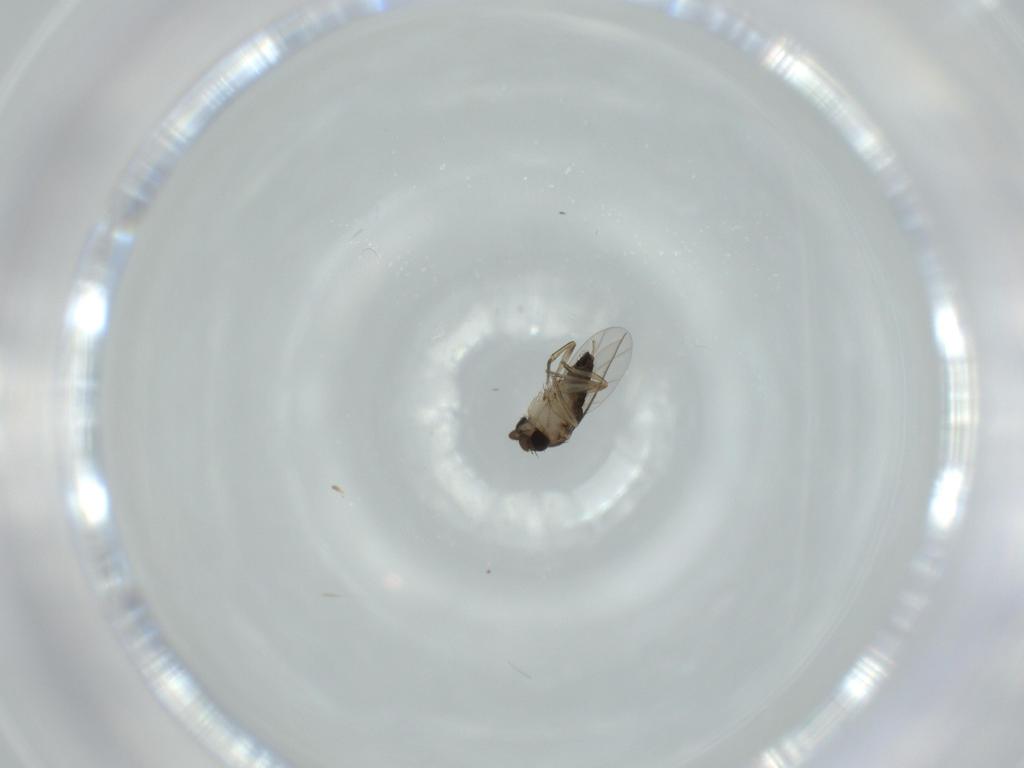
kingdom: Animalia
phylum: Arthropoda
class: Insecta
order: Diptera
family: Phoridae
